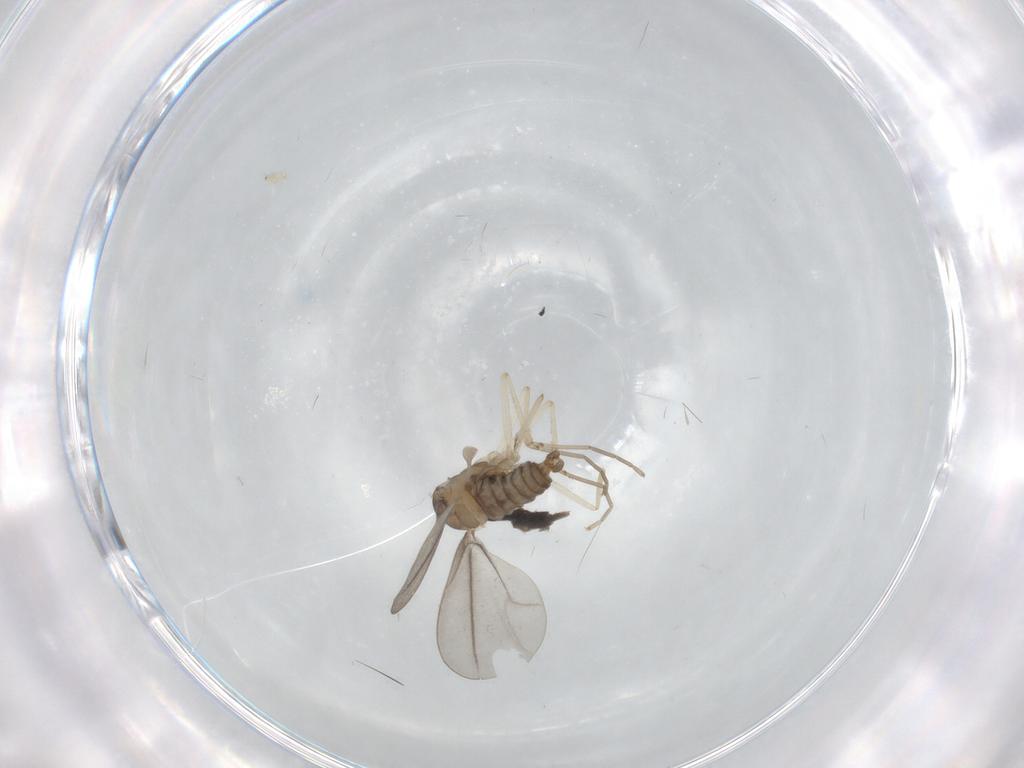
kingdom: Animalia
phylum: Arthropoda
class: Insecta
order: Diptera
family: Cecidomyiidae
